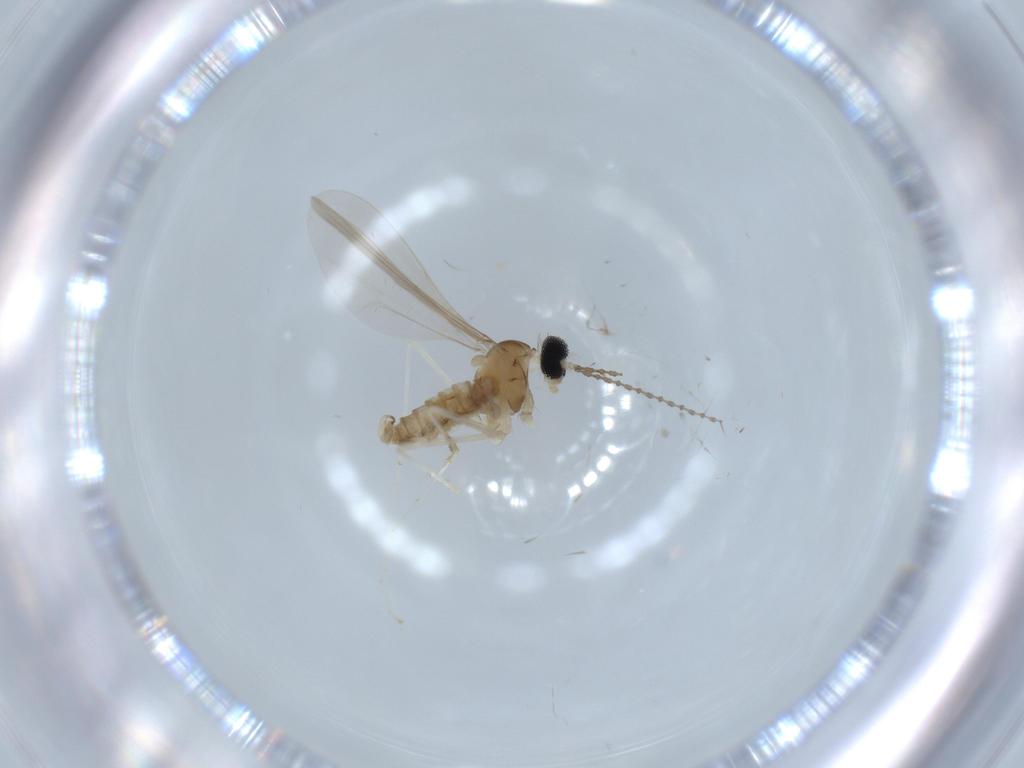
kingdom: Animalia
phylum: Arthropoda
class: Insecta
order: Diptera
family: Cecidomyiidae
